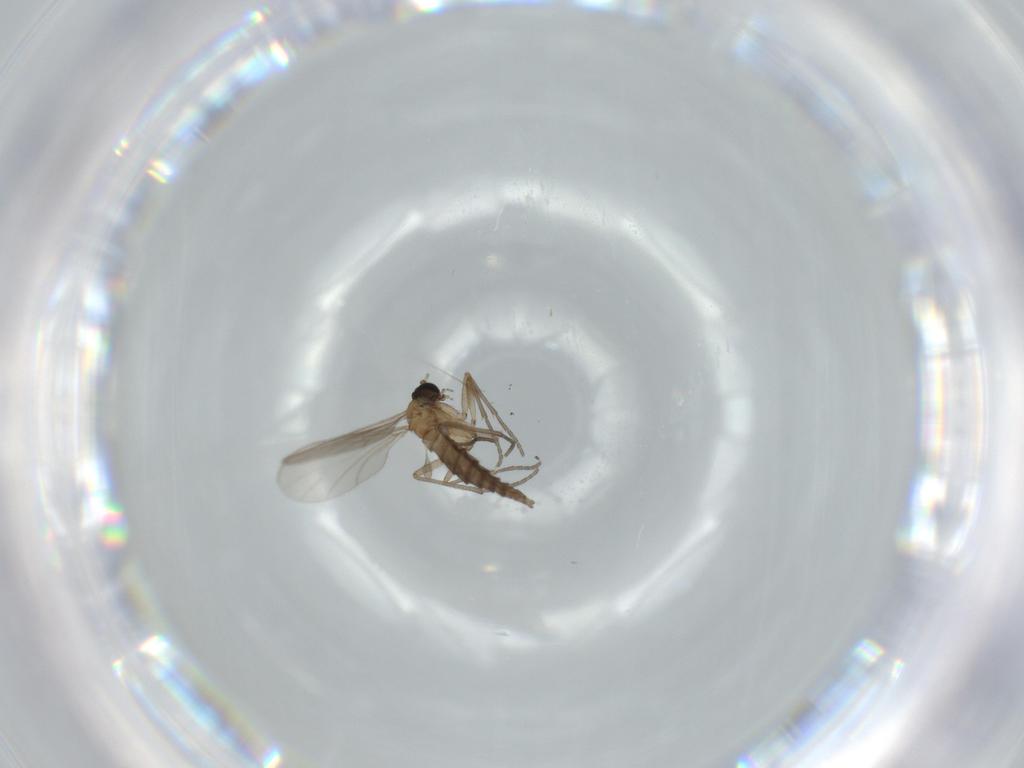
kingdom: Animalia
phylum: Arthropoda
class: Insecta
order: Diptera
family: Sciaridae
